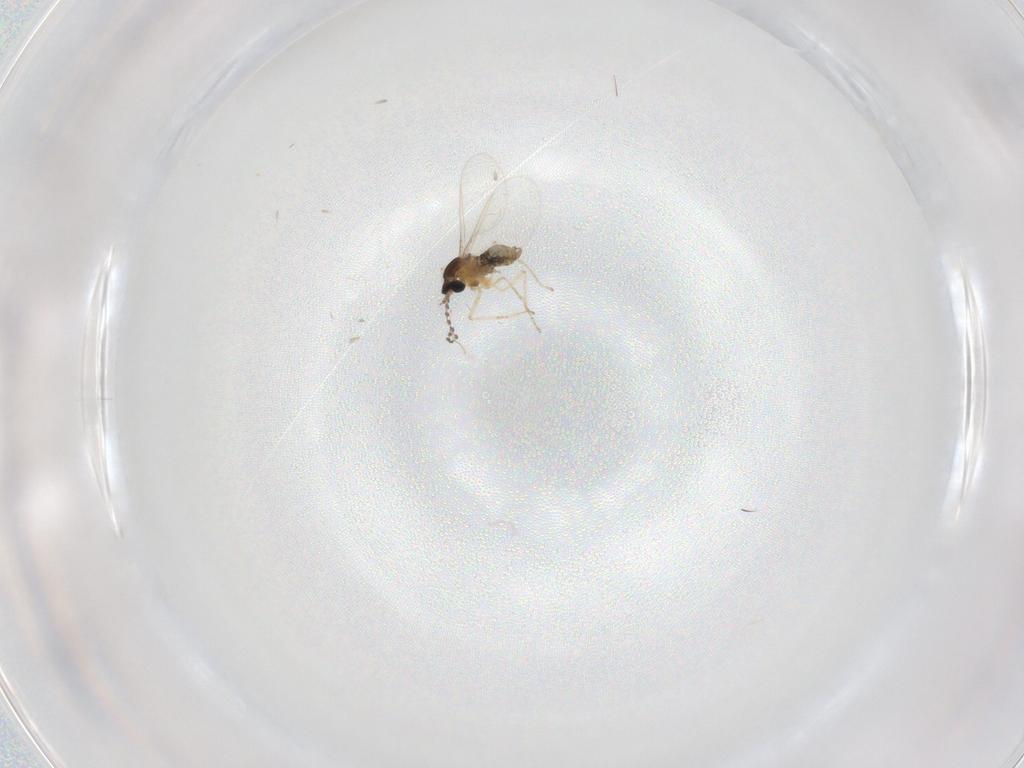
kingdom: Animalia
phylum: Arthropoda
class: Insecta
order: Diptera
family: Cecidomyiidae
